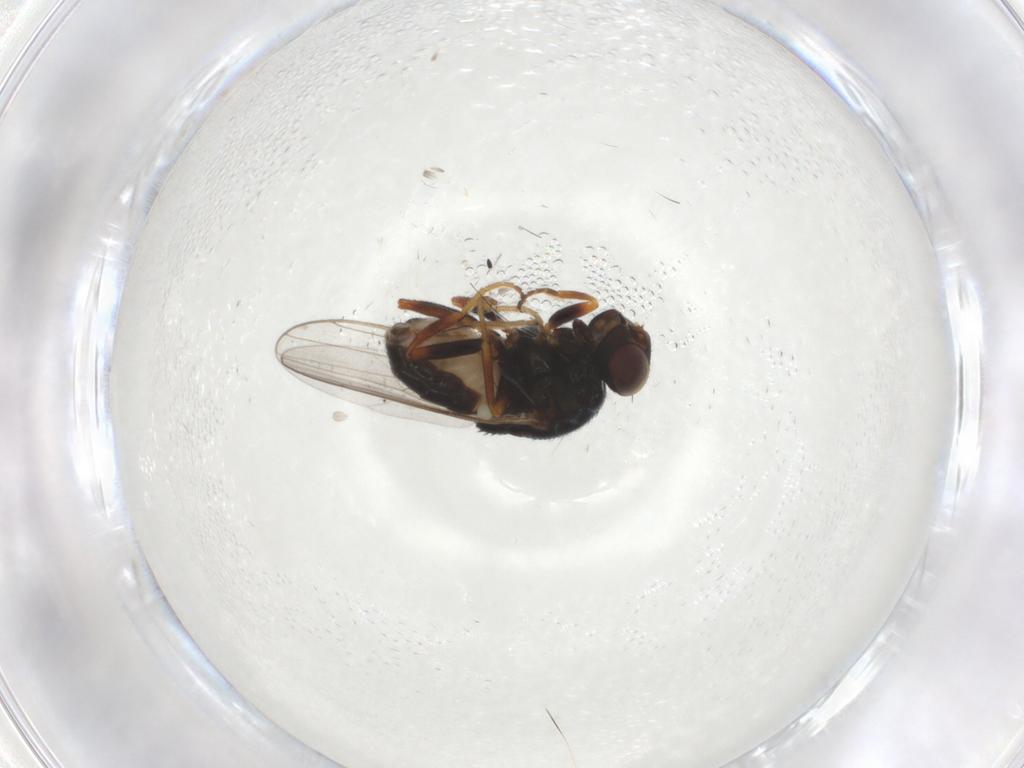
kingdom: Animalia
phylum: Arthropoda
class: Insecta
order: Diptera
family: Chloropidae
